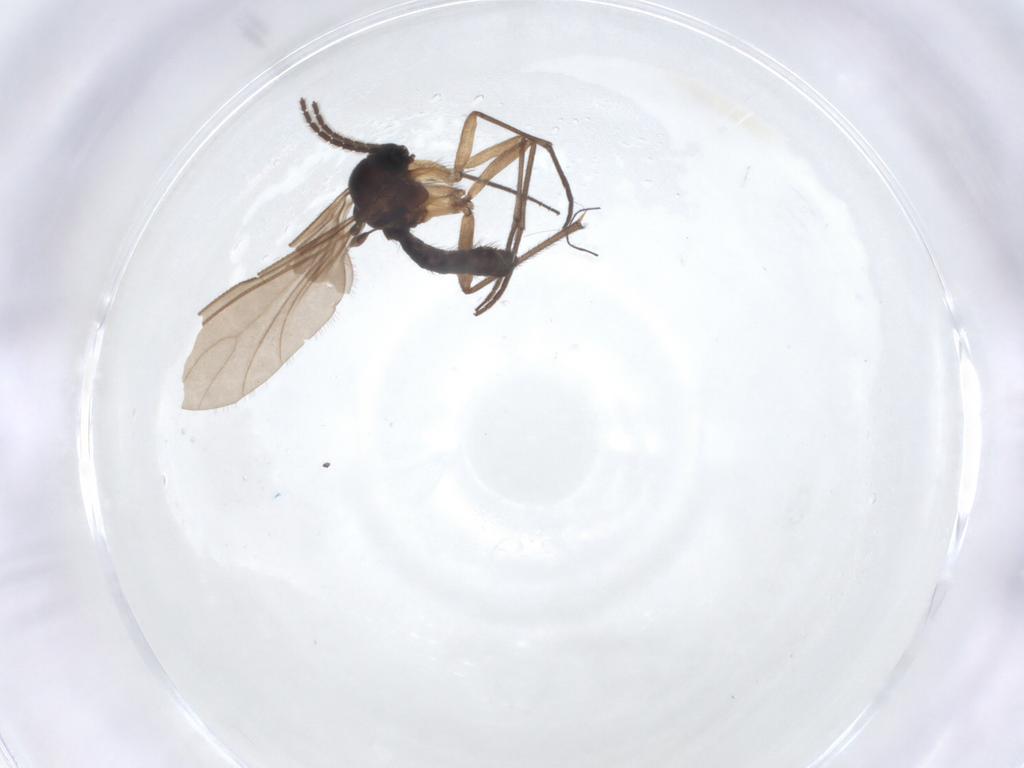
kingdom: Animalia
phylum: Arthropoda
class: Insecta
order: Diptera
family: Sciaridae
